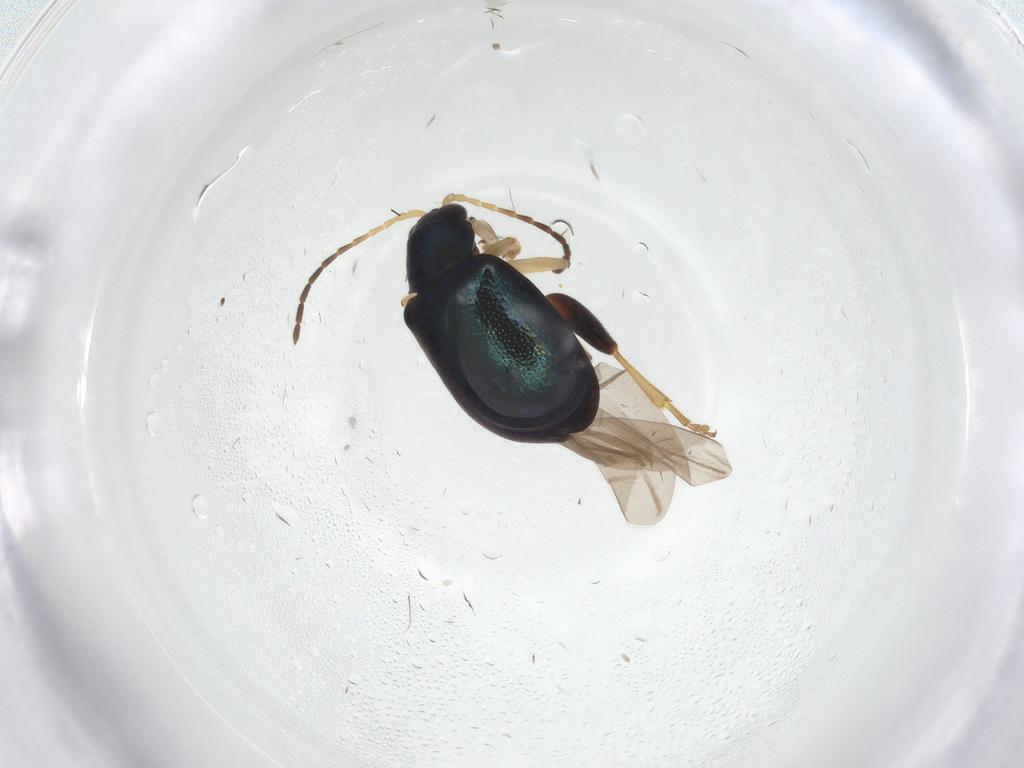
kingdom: Animalia
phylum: Arthropoda
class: Insecta
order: Coleoptera
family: Chrysomelidae
